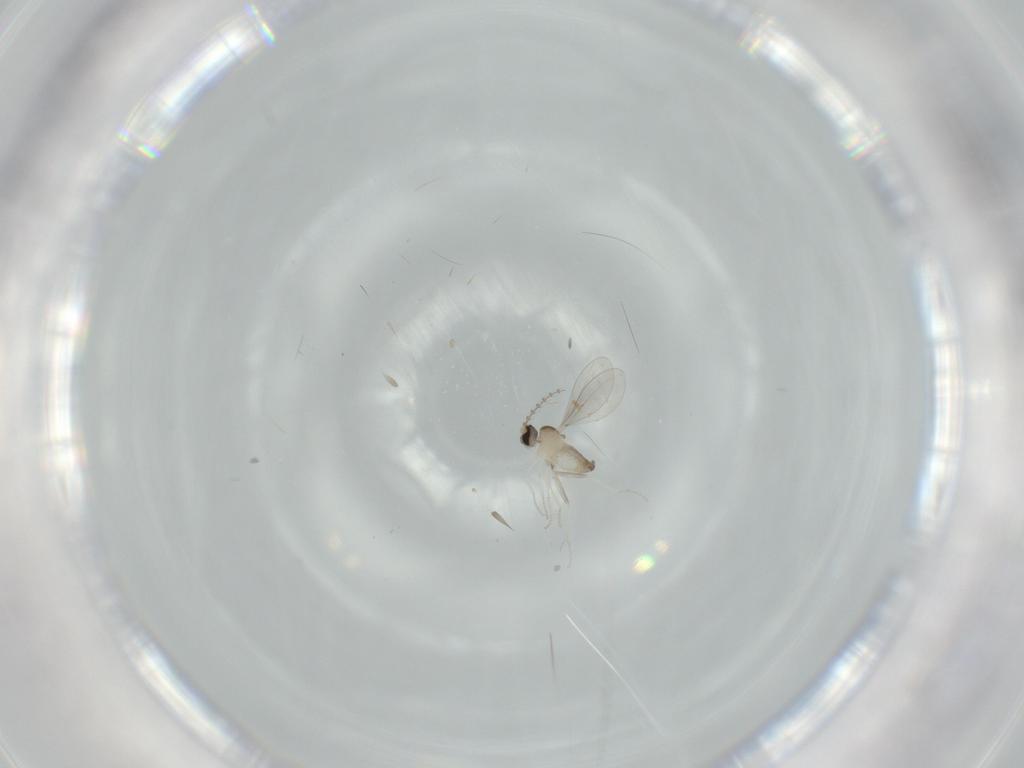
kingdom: Animalia
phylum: Arthropoda
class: Insecta
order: Diptera
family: Cecidomyiidae
